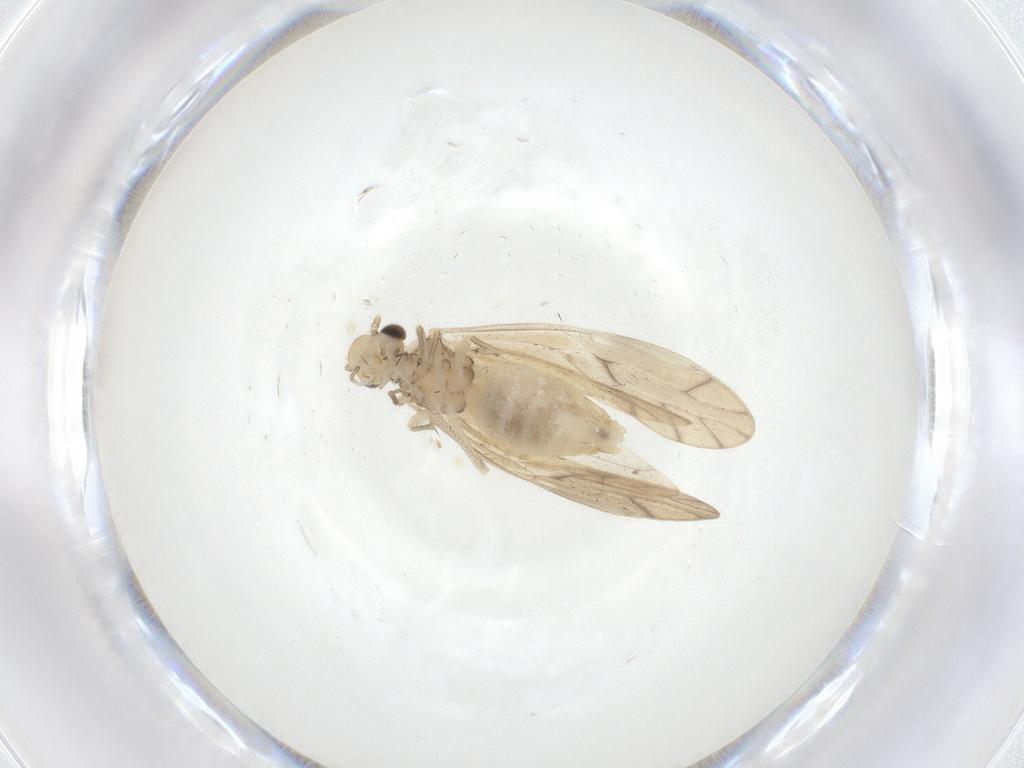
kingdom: Animalia
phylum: Arthropoda
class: Insecta
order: Psocodea
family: Caeciliusidae
